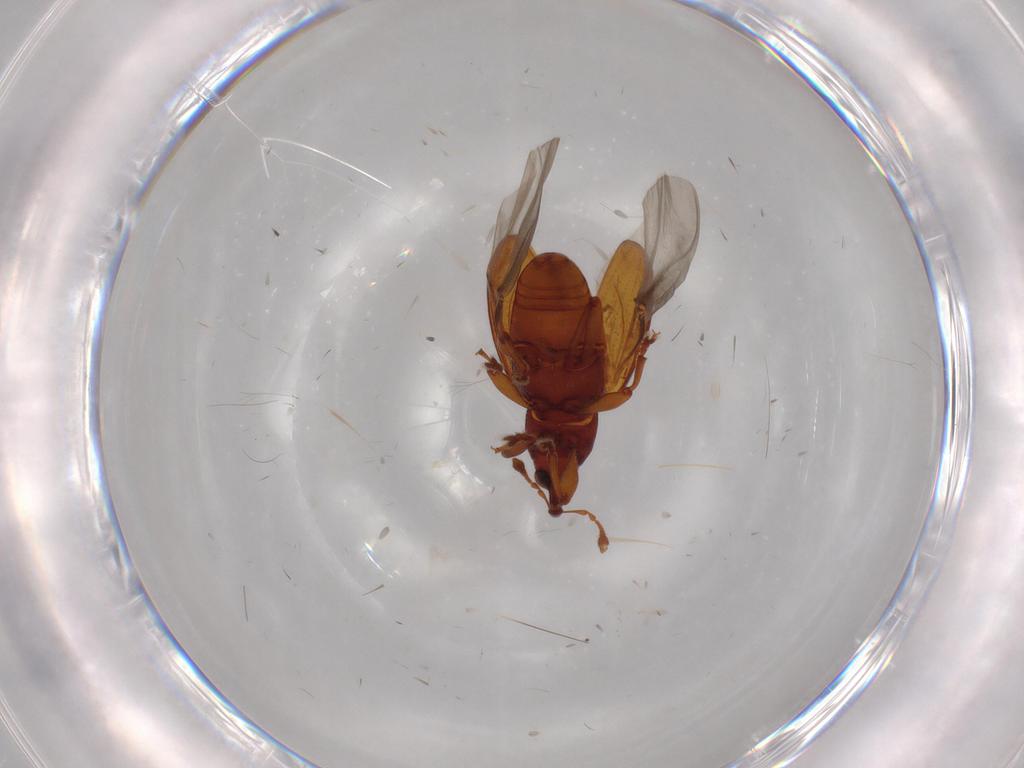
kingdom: Animalia
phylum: Arthropoda
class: Insecta
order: Coleoptera
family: Curculionidae
